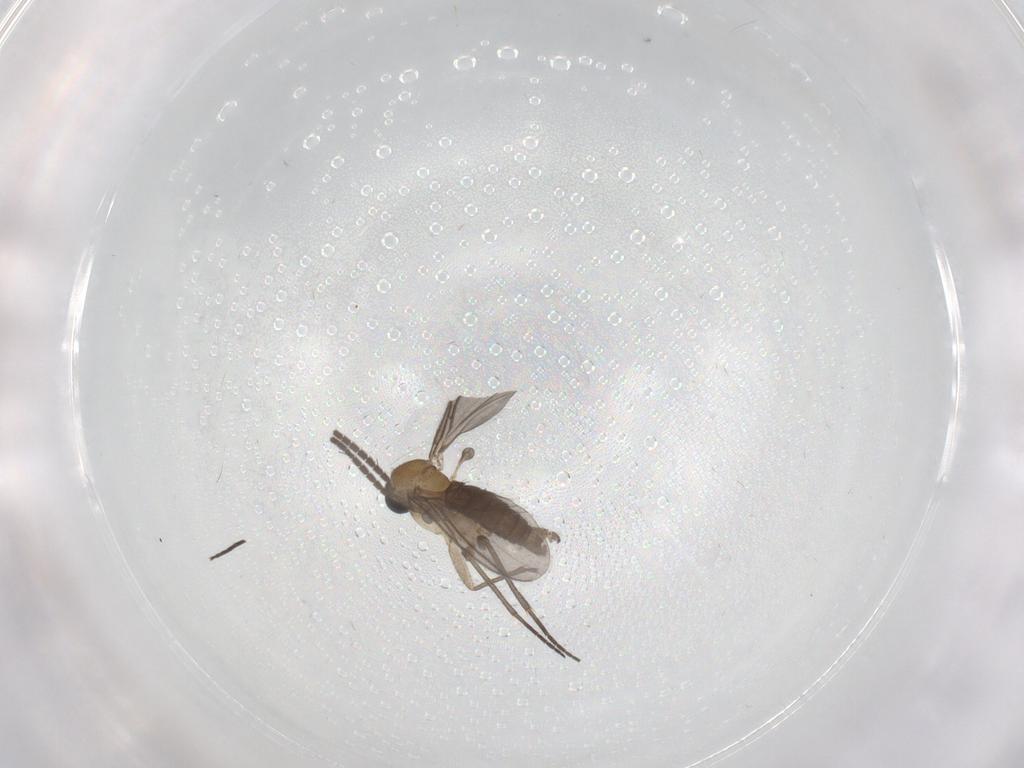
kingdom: Animalia
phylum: Arthropoda
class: Insecta
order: Diptera
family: Sciaridae
